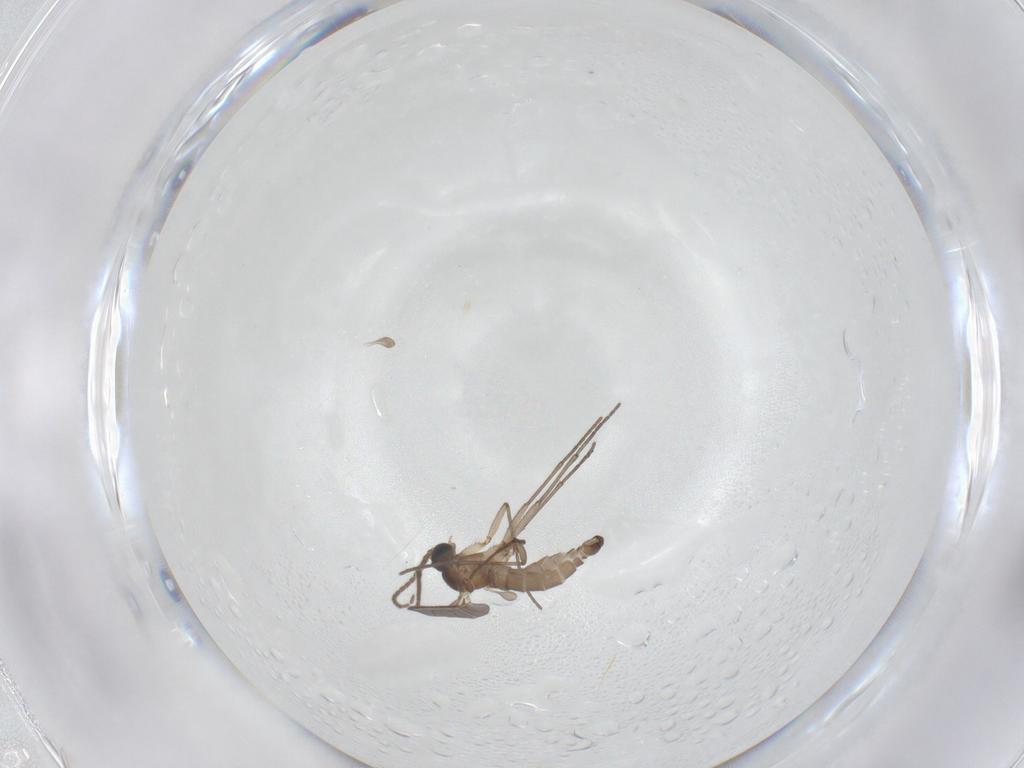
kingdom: Animalia
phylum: Arthropoda
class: Insecta
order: Diptera
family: Sciaridae
